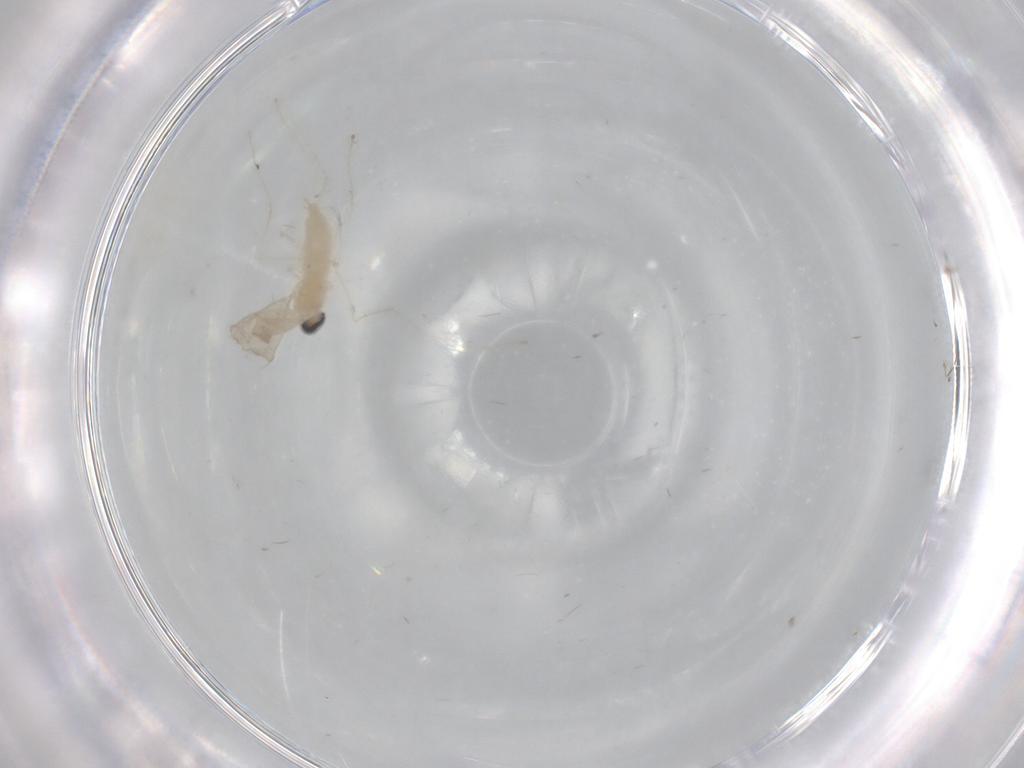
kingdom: Animalia
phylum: Arthropoda
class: Insecta
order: Diptera
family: Cecidomyiidae
